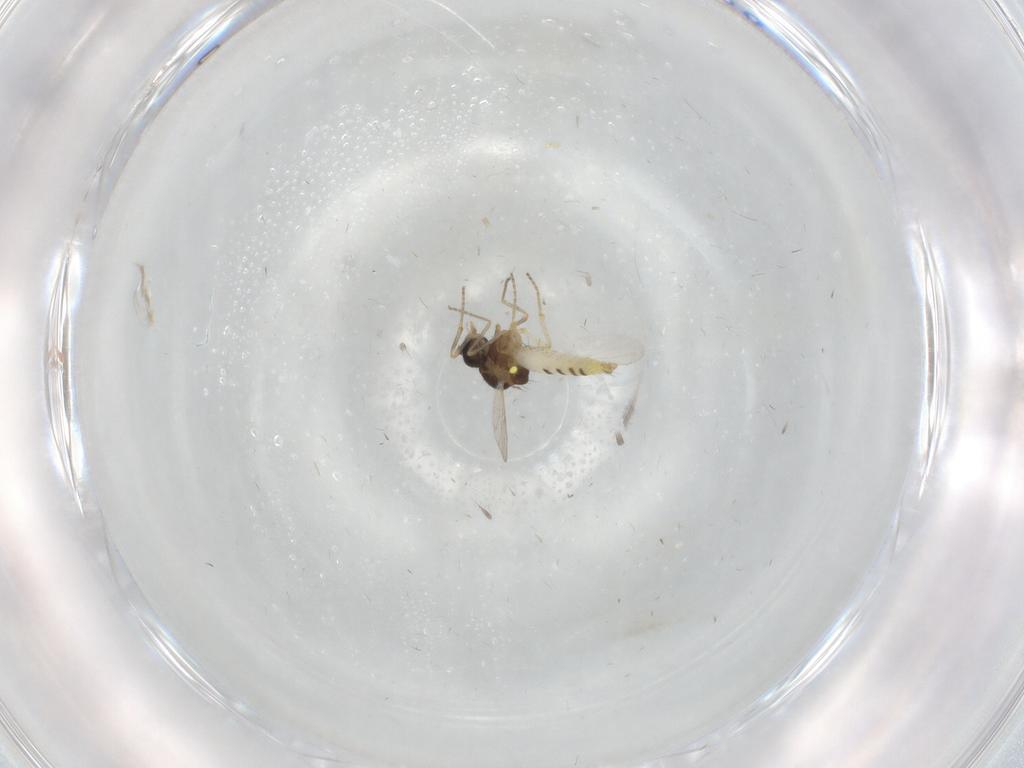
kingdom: Animalia
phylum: Arthropoda
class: Insecta
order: Diptera
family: Ceratopogonidae
